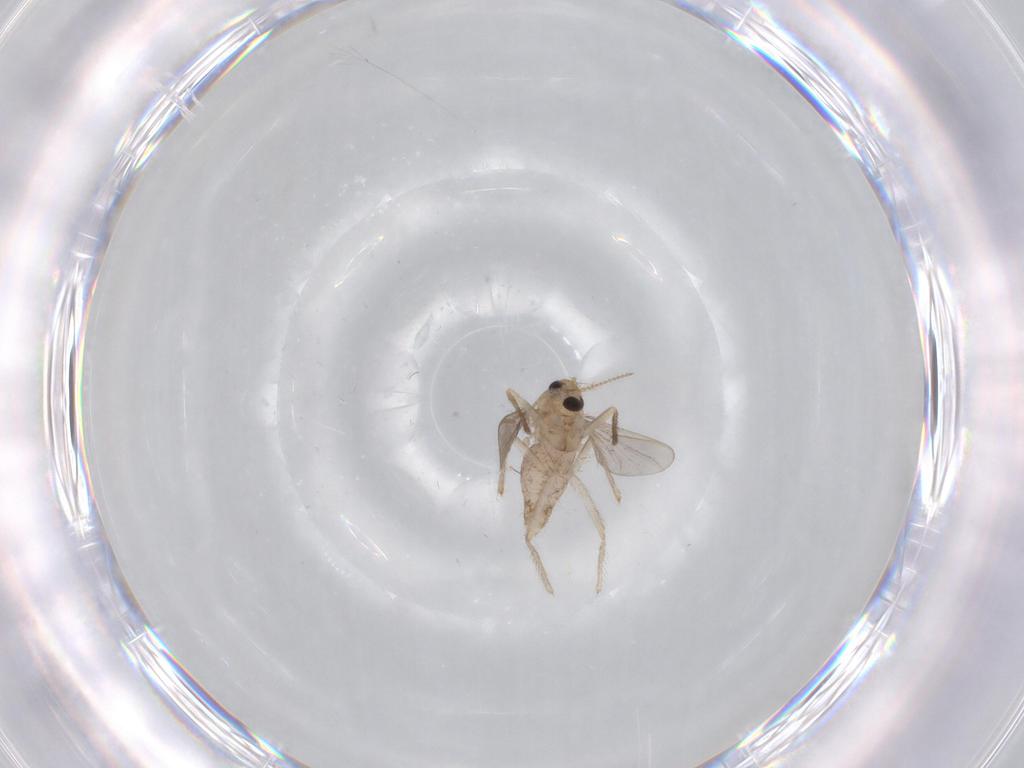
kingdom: Animalia
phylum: Arthropoda
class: Insecta
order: Diptera
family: Chironomidae
